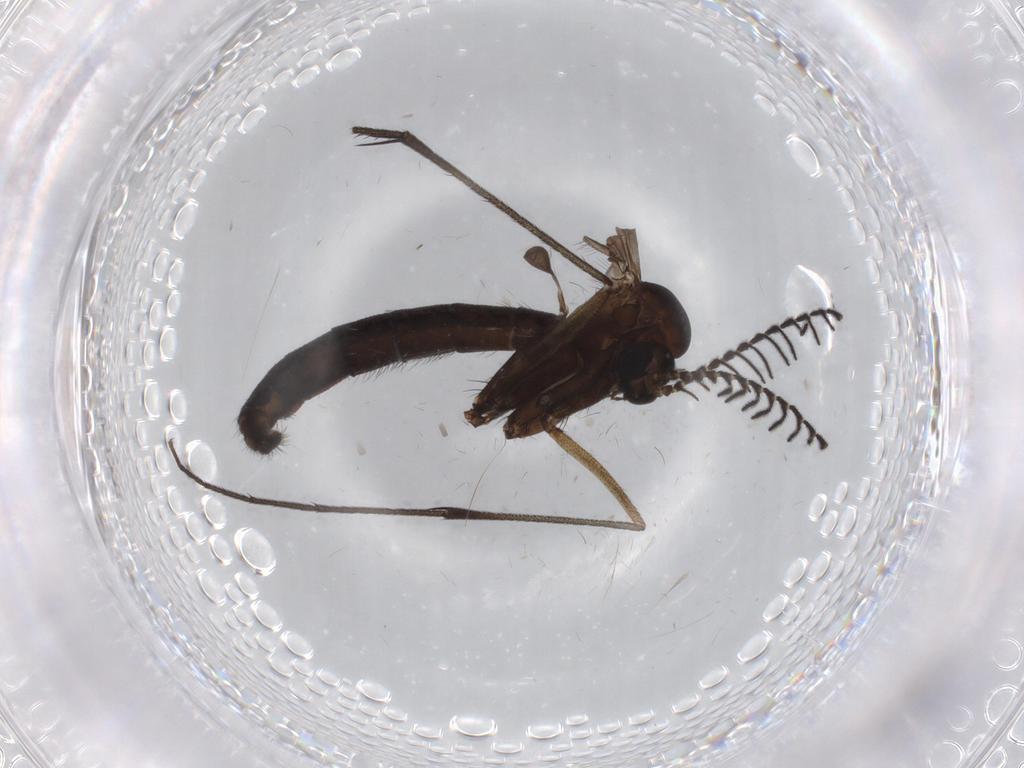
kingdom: Animalia
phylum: Arthropoda
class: Insecta
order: Diptera
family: Ditomyiidae
